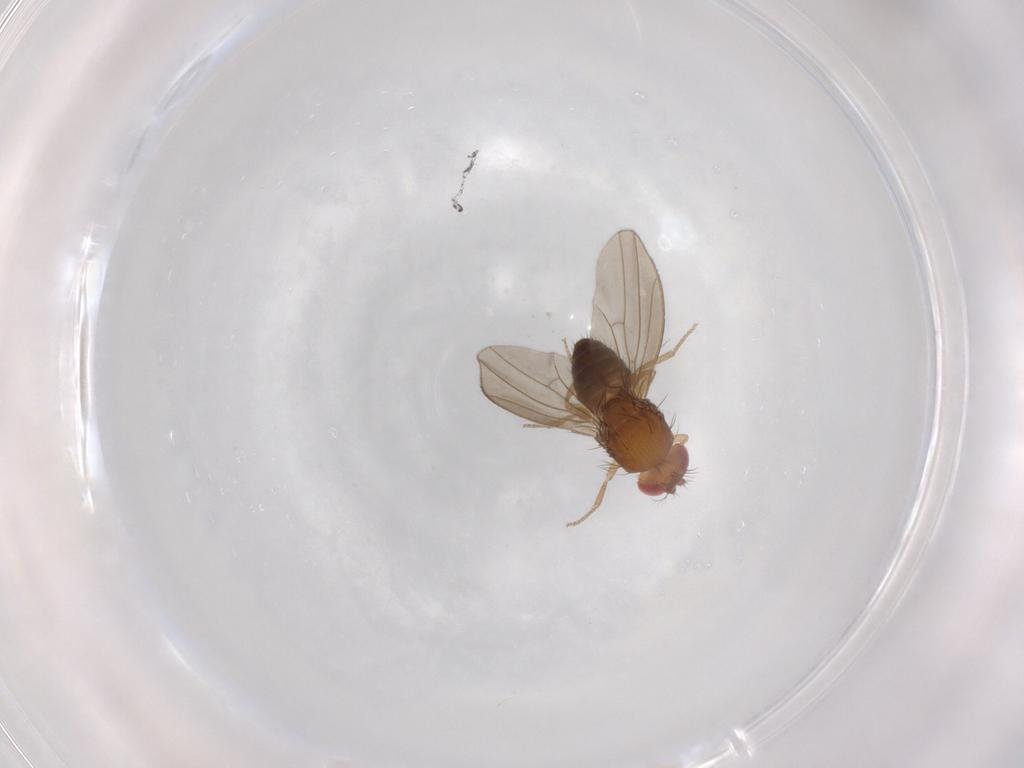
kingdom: Animalia
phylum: Arthropoda
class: Insecta
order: Diptera
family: Drosophilidae
